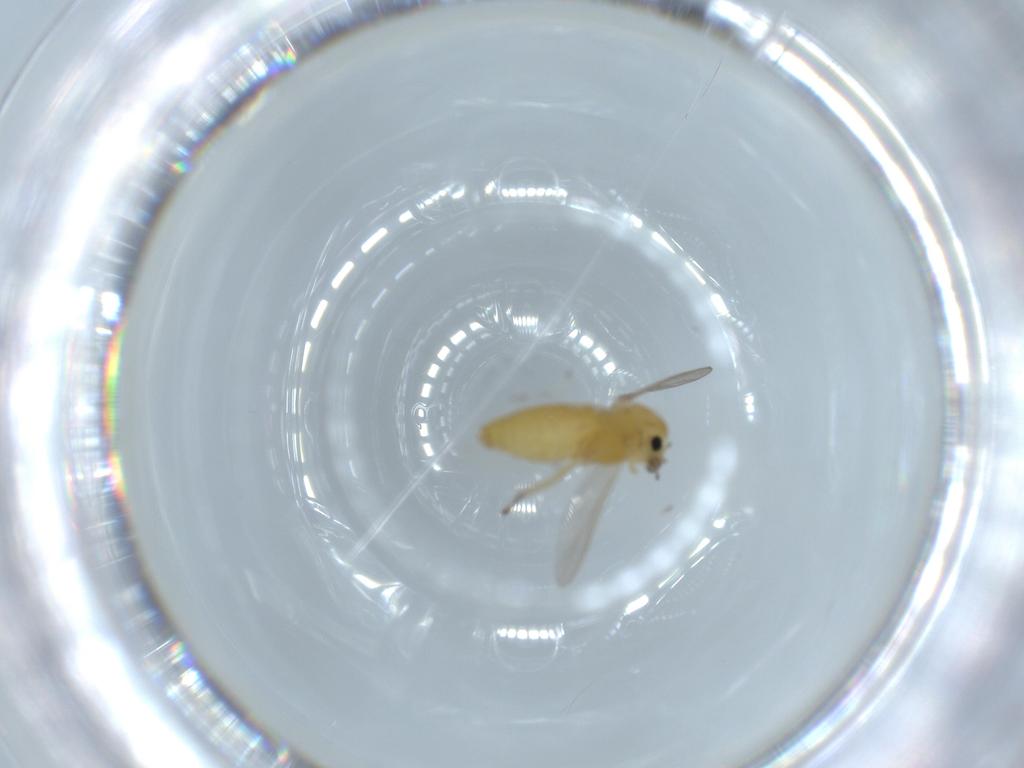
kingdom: Animalia
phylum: Arthropoda
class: Insecta
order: Diptera
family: Chironomidae
